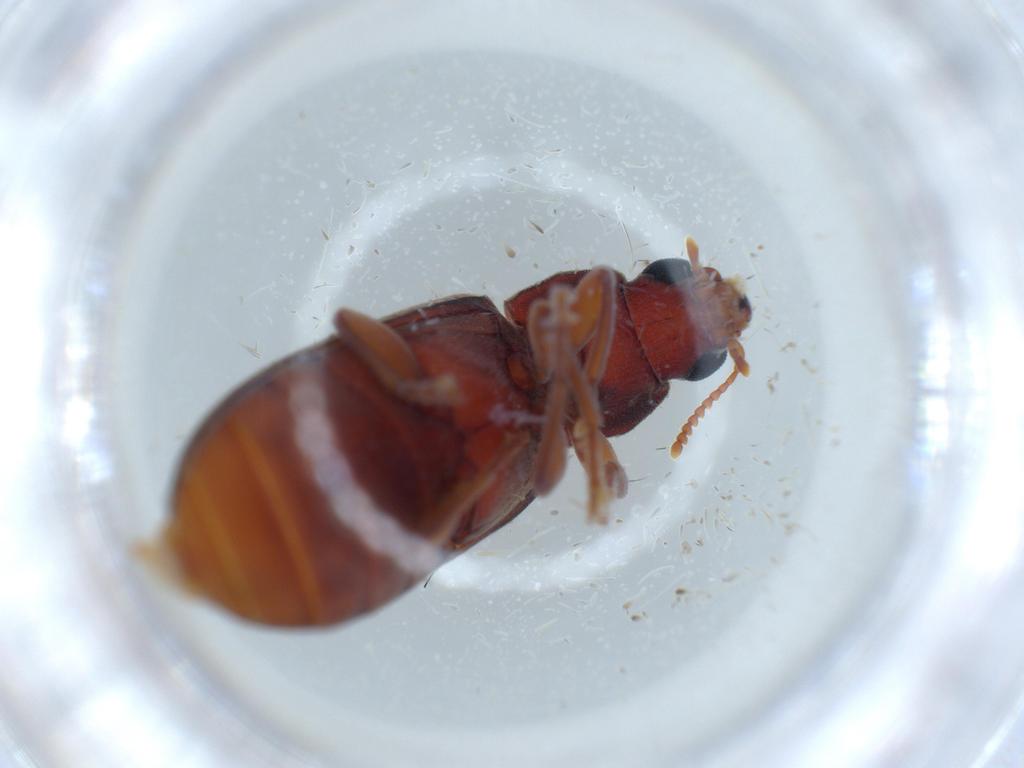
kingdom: Animalia
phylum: Arthropoda
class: Insecta
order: Coleoptera
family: Mycteridae
